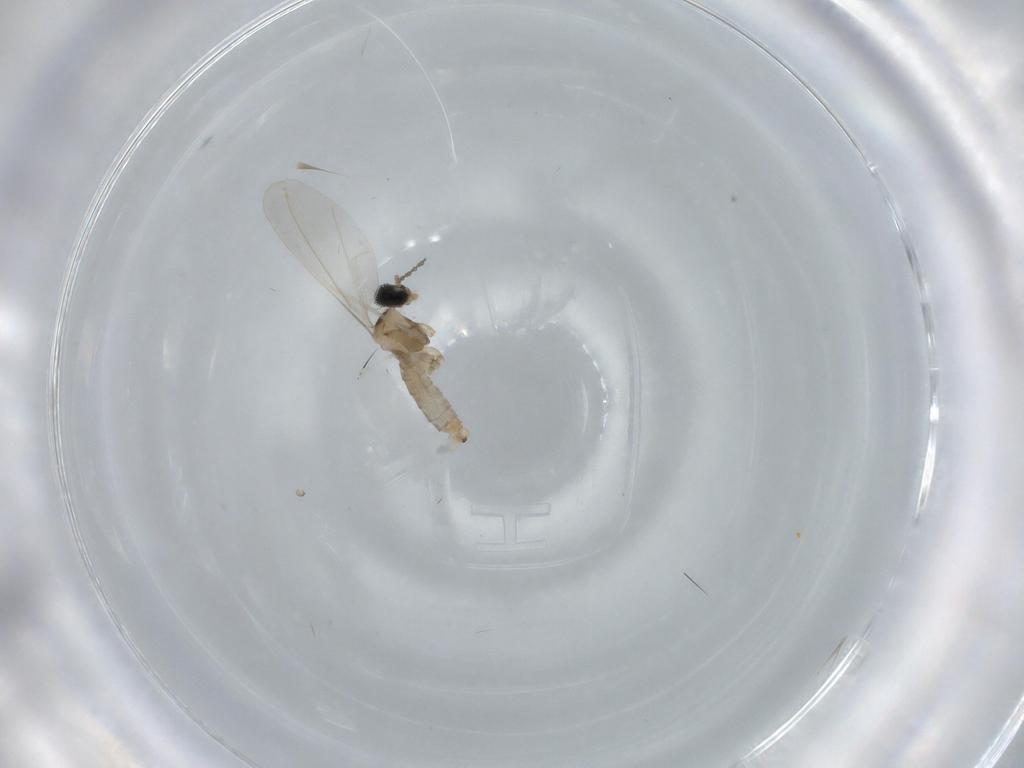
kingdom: Animalia
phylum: Arthropoda
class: Insecta
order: Diptera
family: Cecidomyiidae
